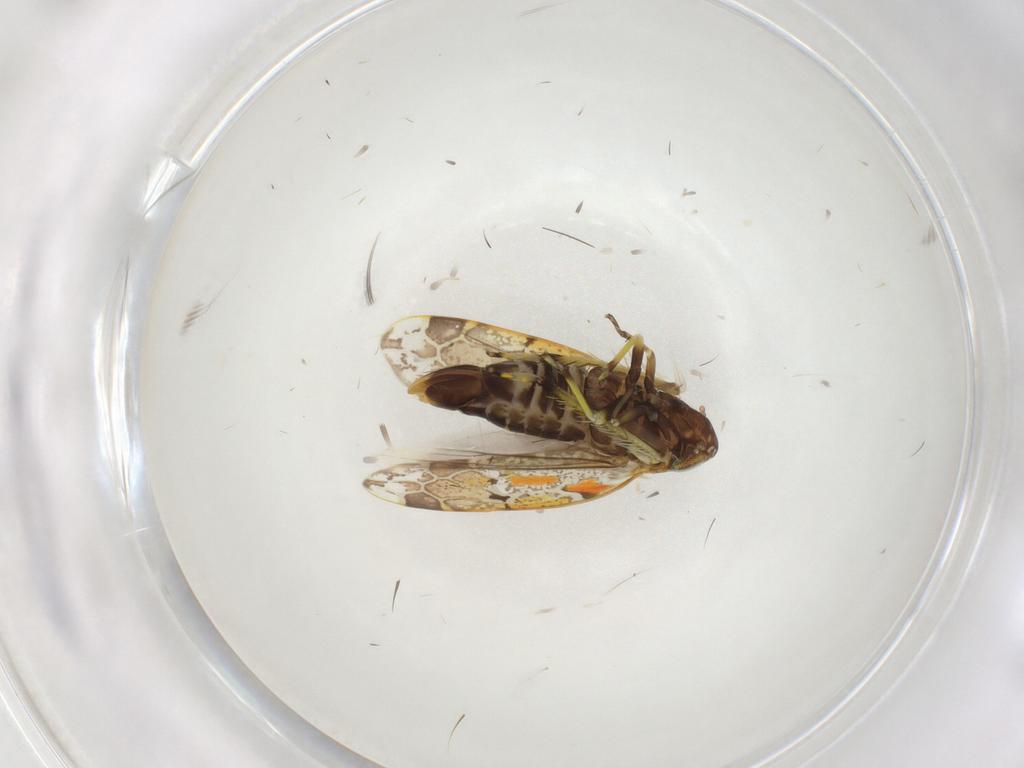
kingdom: Animalia
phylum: Arthropoda
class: Insecta
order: Hemiptera
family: Cicadellidae
